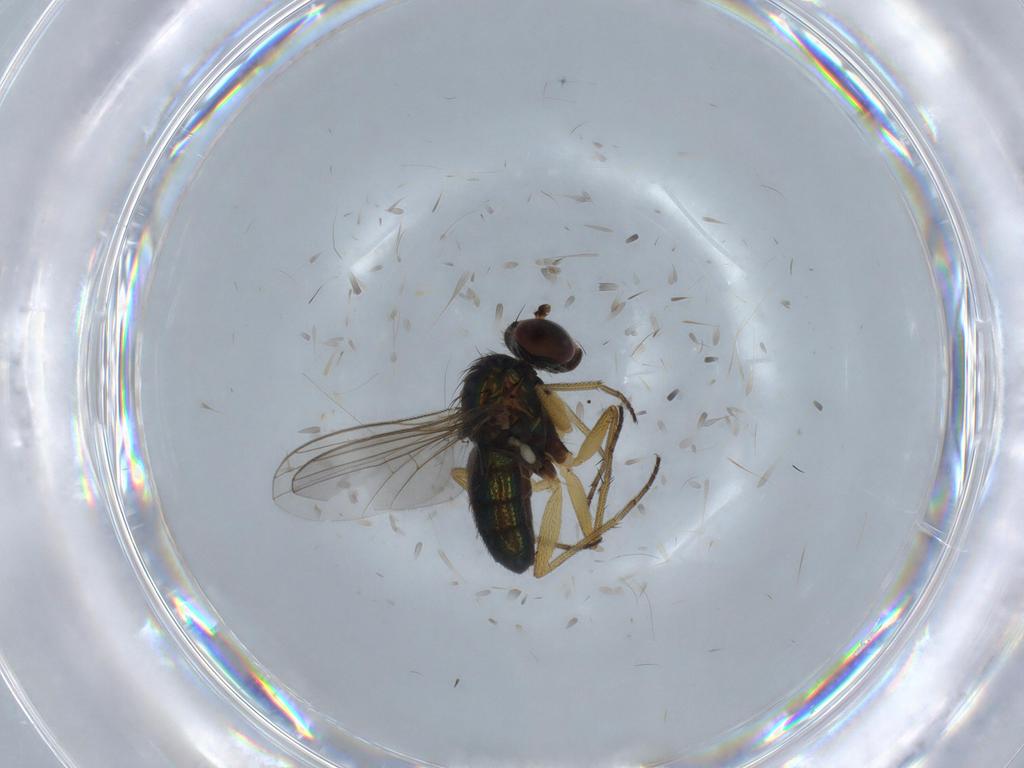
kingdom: Animalia
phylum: Arthropoda
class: Insecta
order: Diptera
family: Dolichopodidae
